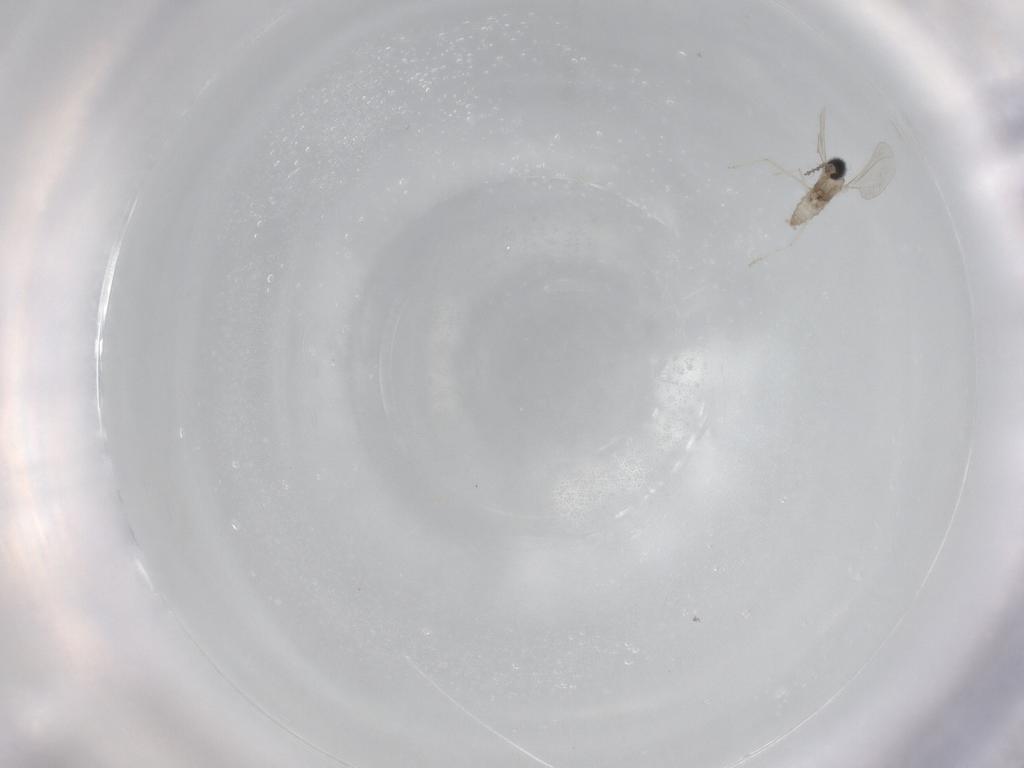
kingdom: Animalia
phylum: Arthropoda
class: Insecta
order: Diptera
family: Cecidomyiidae
